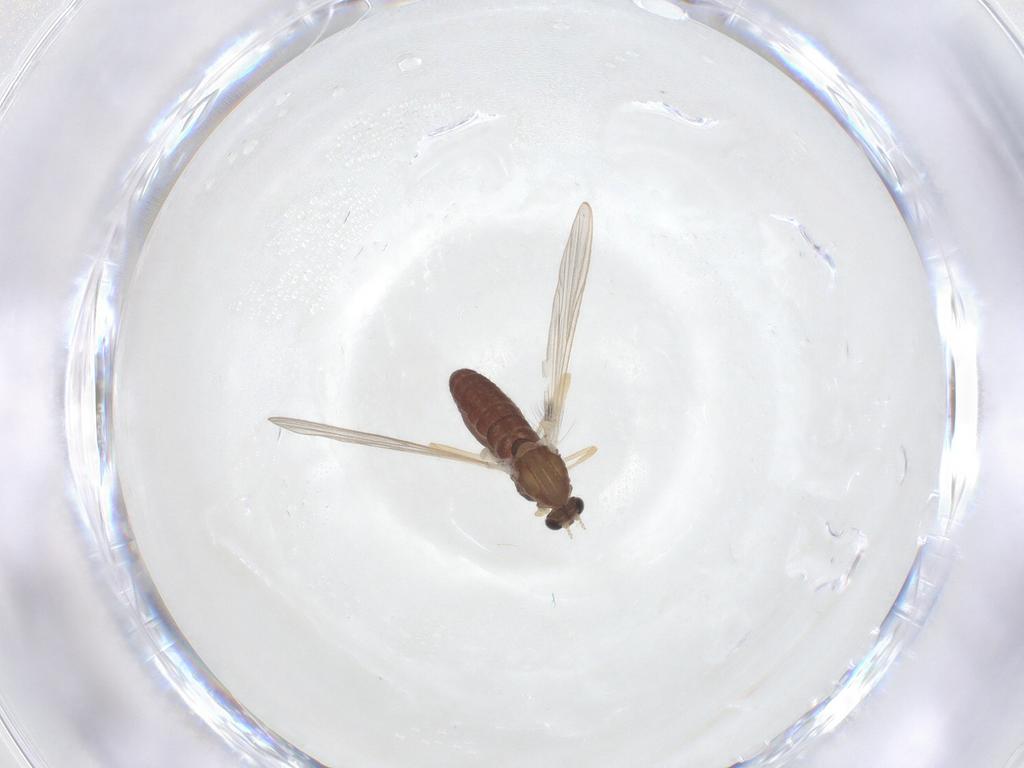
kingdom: Animalia
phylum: Arthropoda
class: Insecta
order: Diptera
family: Chironomidae
